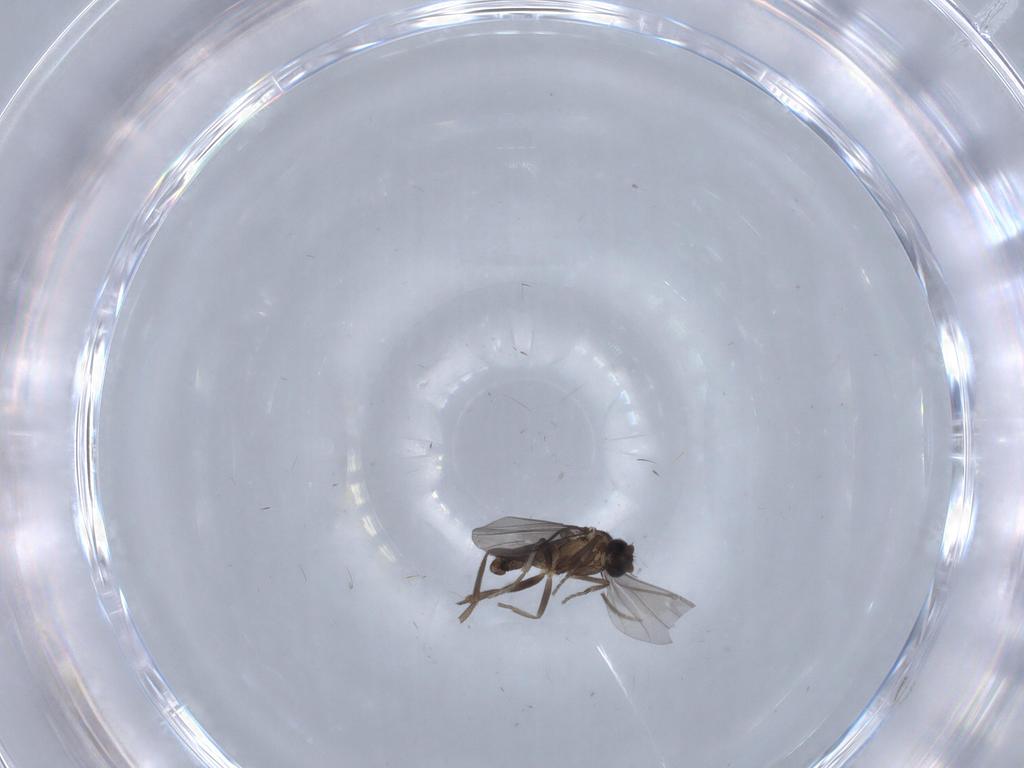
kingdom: Animalia
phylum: Arthropoda
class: Insecta
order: Diptera
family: Phoridae
